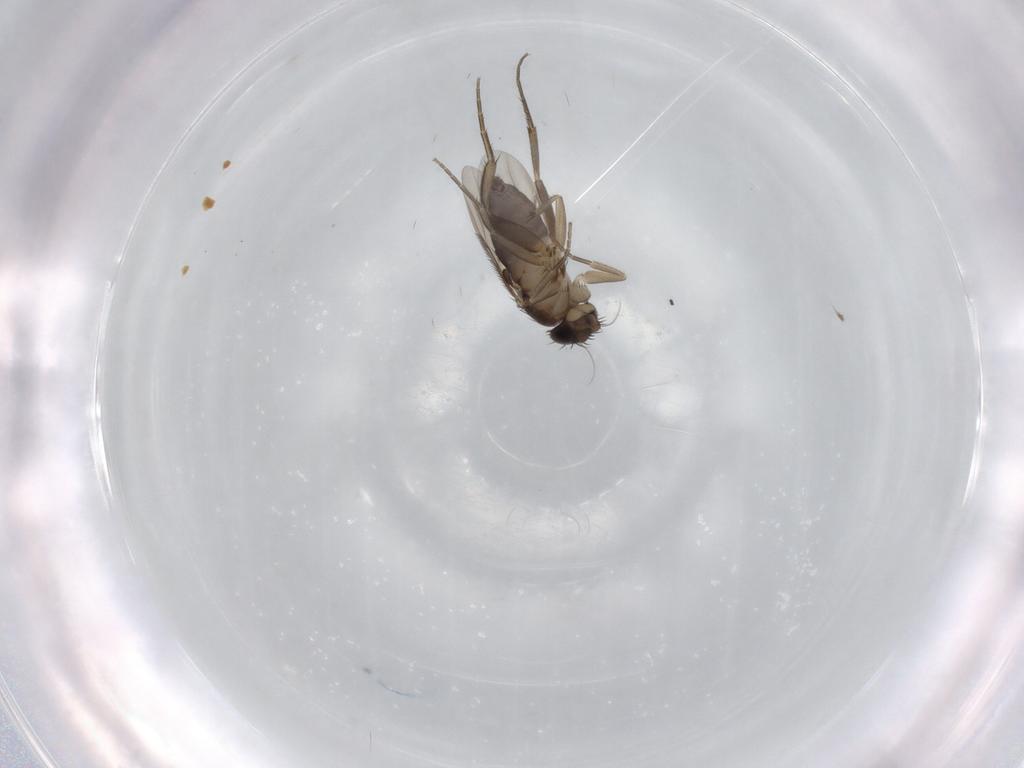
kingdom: Animalia
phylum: Arthropoda
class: Insecta
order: Diptera
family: Phoridae
